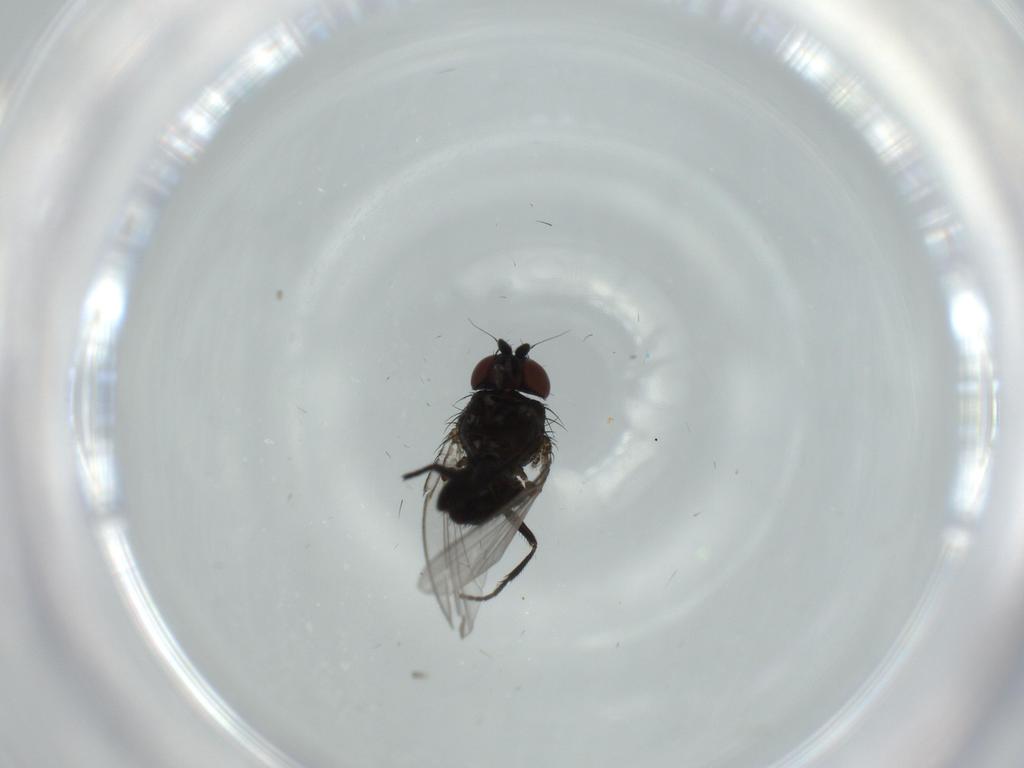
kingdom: Animalia
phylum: Arthropoda
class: Insecta
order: Diptera
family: Milichiidae
